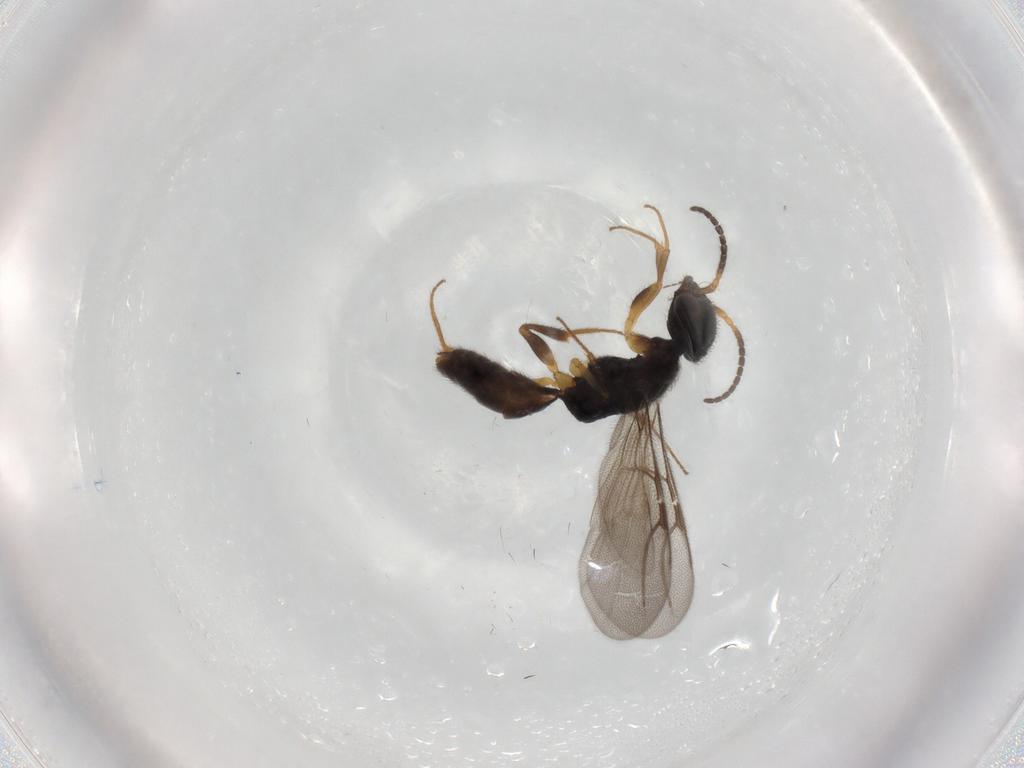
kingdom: Animalia
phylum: Arthropoda
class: Insecta
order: Hymenoptera
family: Bethylidae
